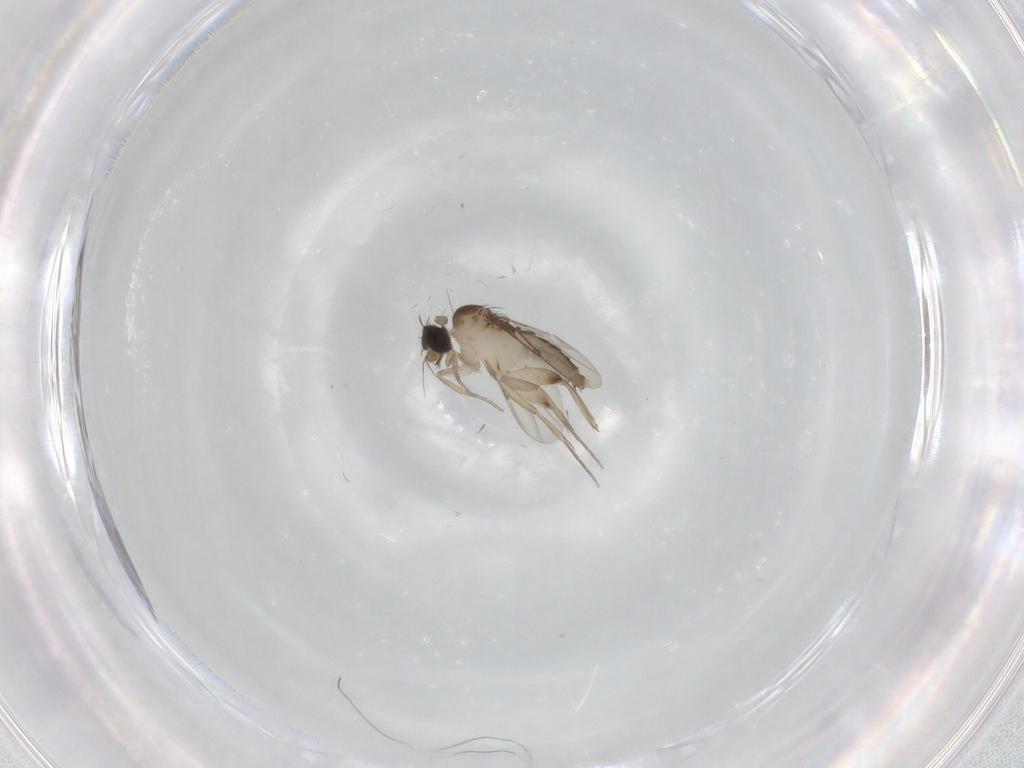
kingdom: Animalia
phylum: Arthropoda
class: Insecta
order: Diptera
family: Phoridae
